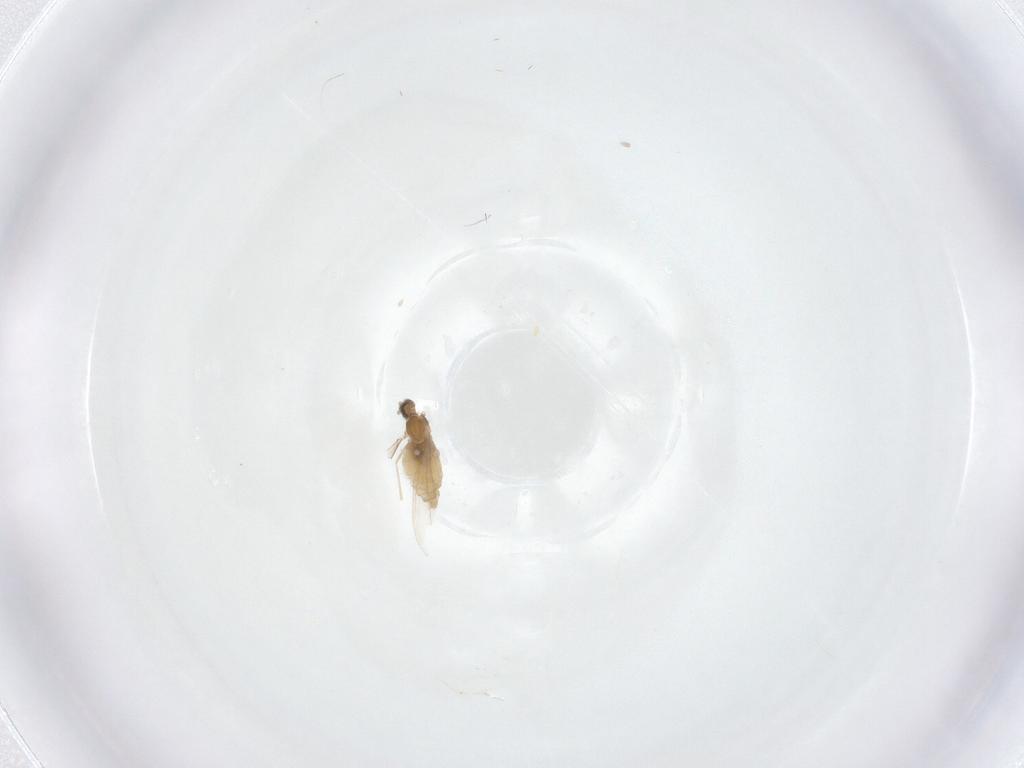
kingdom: Animalia
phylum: Arthropoda
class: Insecta
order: Diptera
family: Cecidomyiidae
